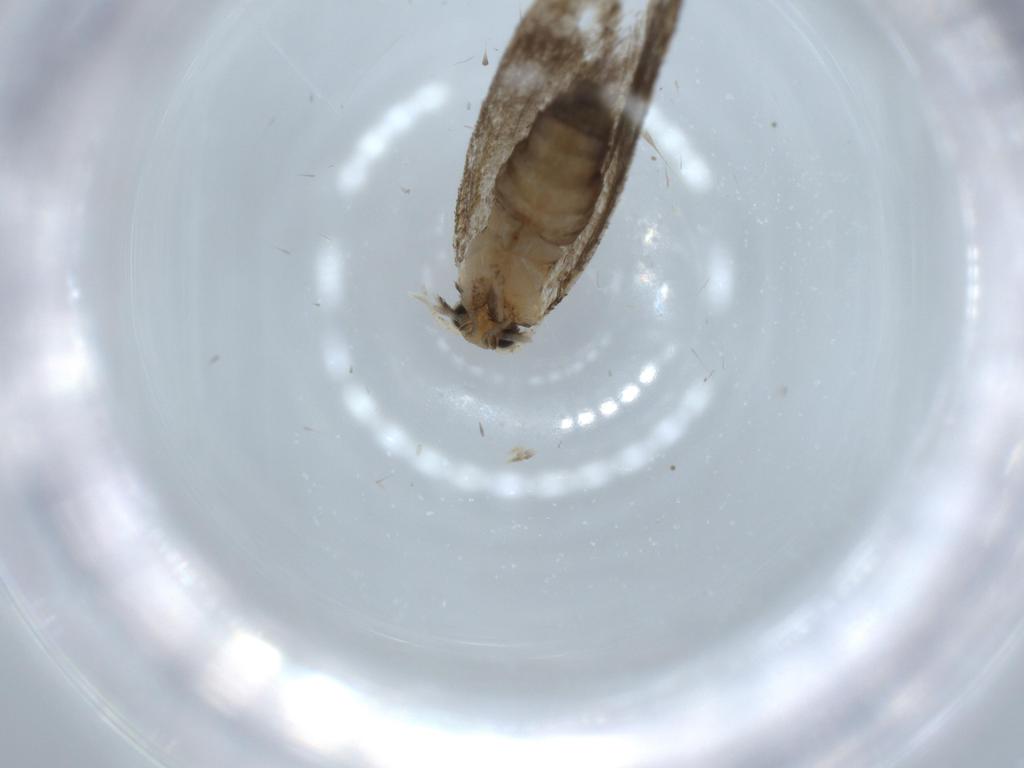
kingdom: Animalia
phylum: Arthropoda
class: Insecta
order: Lepidoptera
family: Tineidae
